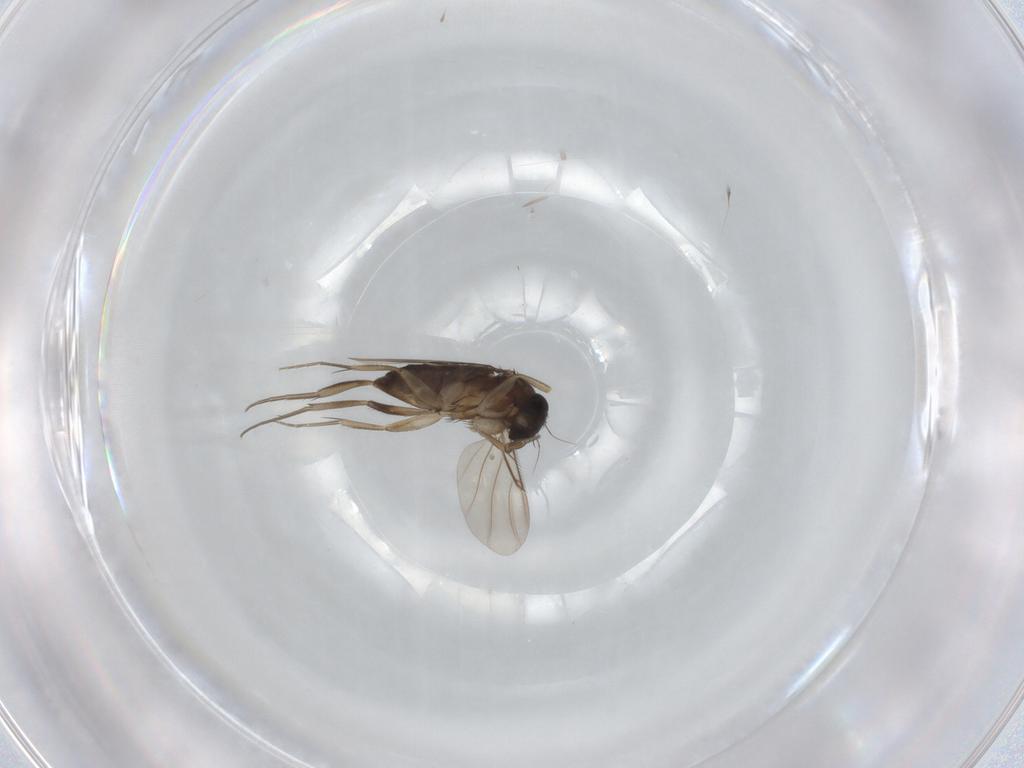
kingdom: Animalia
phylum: Arthropoda
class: Insecta
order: Diptera
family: Phoridae
